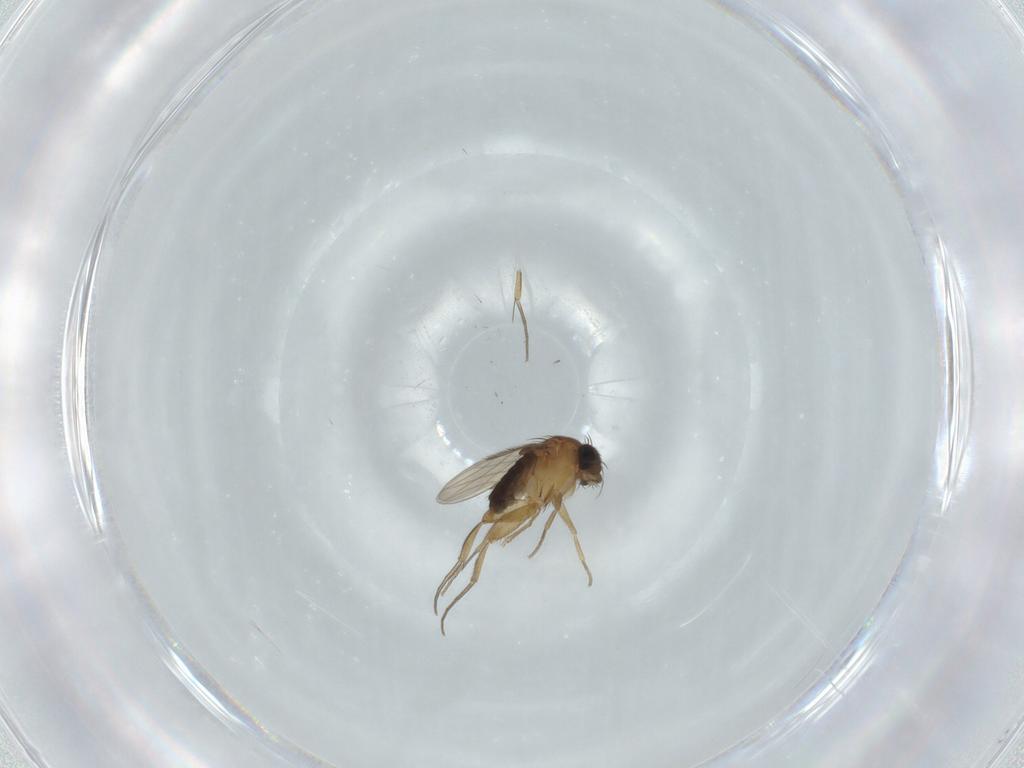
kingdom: Animalia
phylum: Arthropoda
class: Insecta
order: Diptera
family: Phoridae
